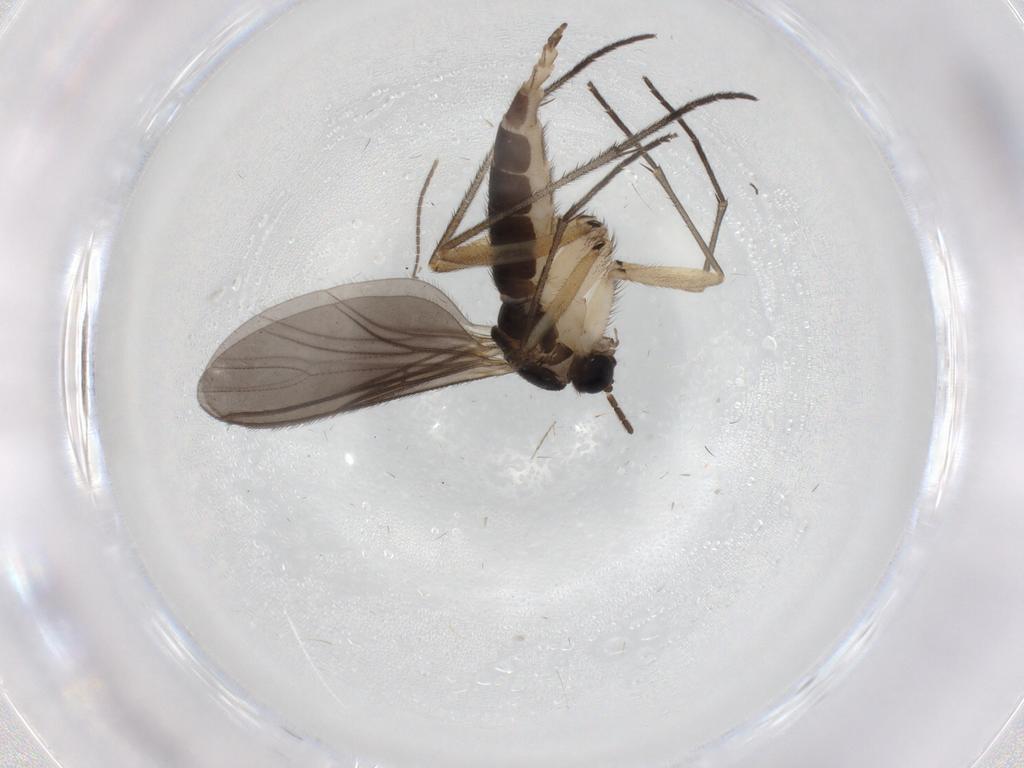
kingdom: Animalia
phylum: Arthropoda
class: Insecta
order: Diptera
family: Sciaridae
